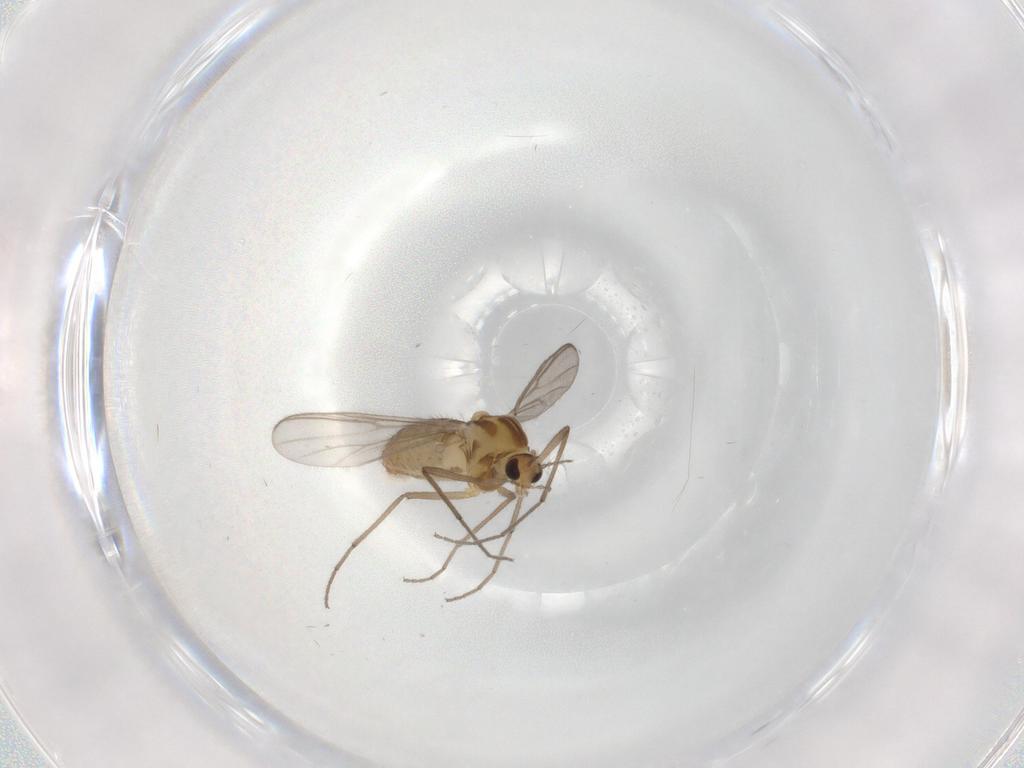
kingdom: Animalia
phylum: Arthropoda
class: Insecta
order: Diptera
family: Chironomidae
